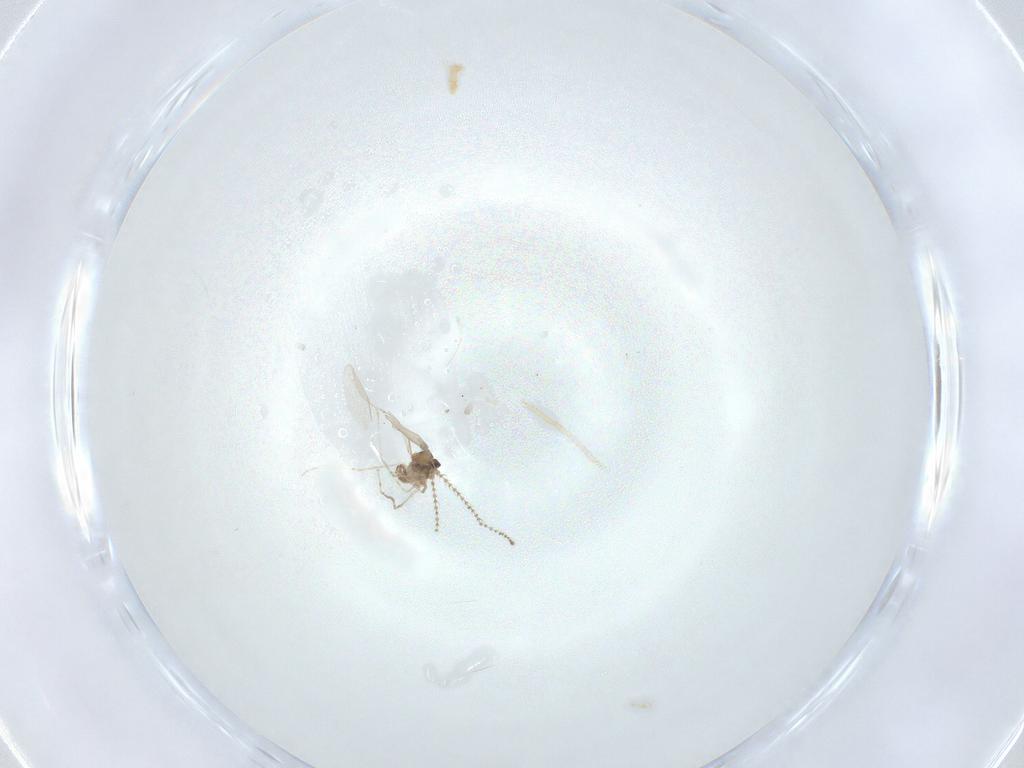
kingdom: Animalia
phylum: Arthropoda
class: Insecta
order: Diptera
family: Cecidomyiidae
